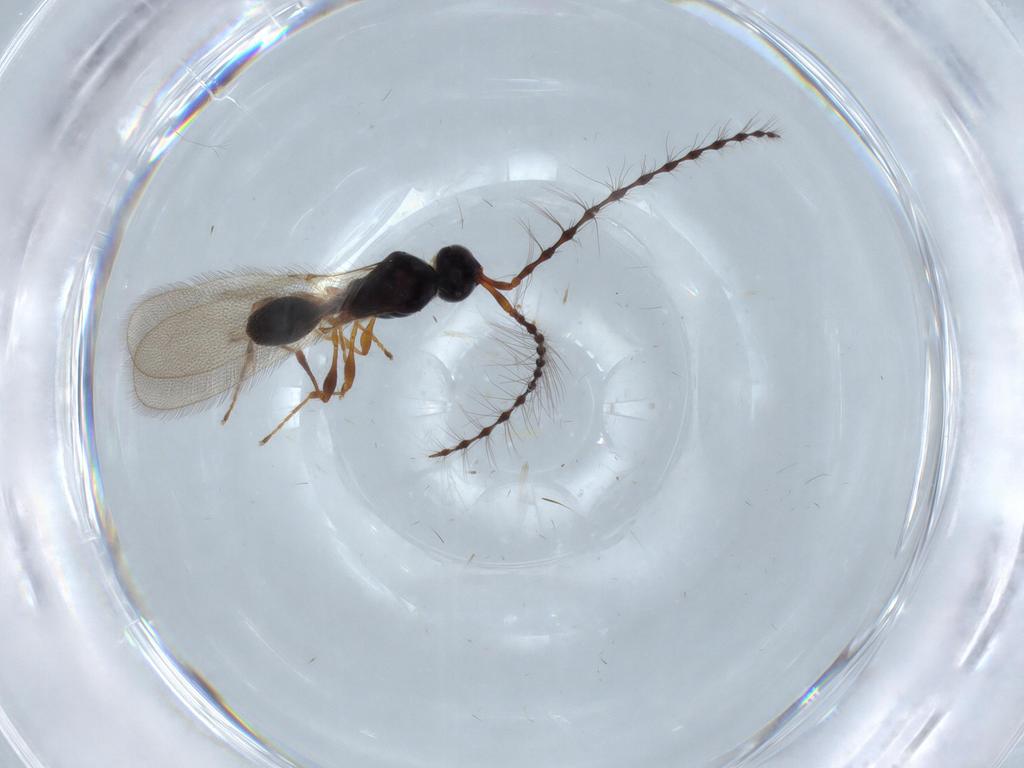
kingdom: Animalia
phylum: Arthropoda
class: Insecta
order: Hymenoptera
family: Diapriidae
